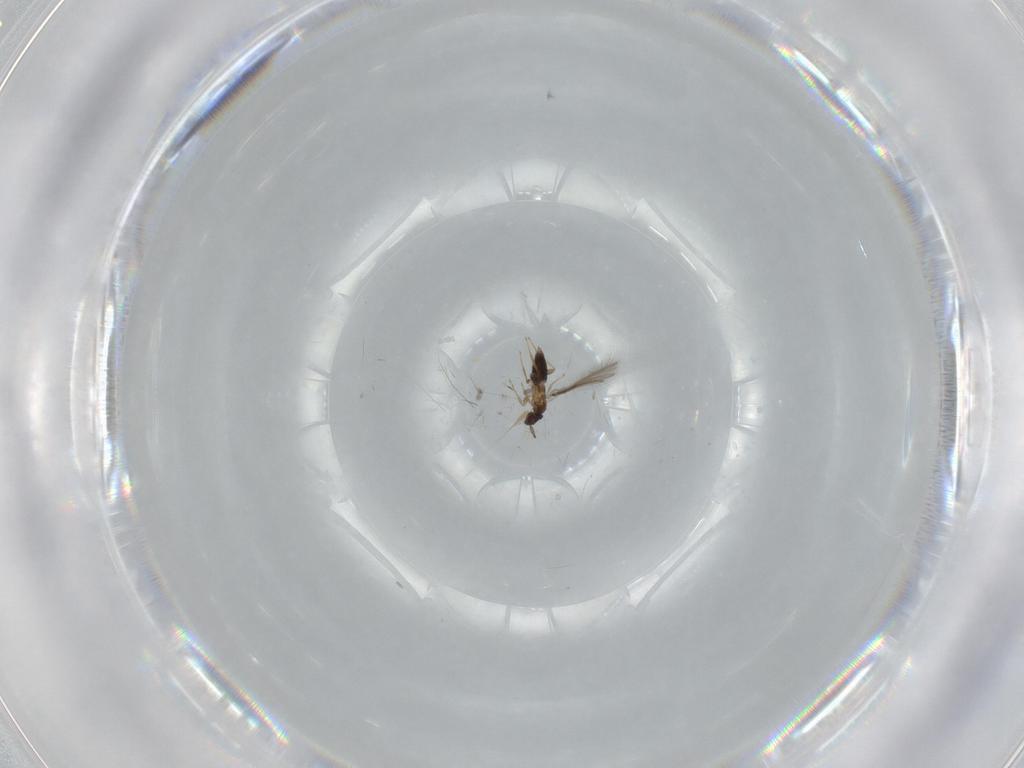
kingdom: Animalia
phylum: Arthropoda
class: Insecta
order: Hymenoptera
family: Mymaridae
